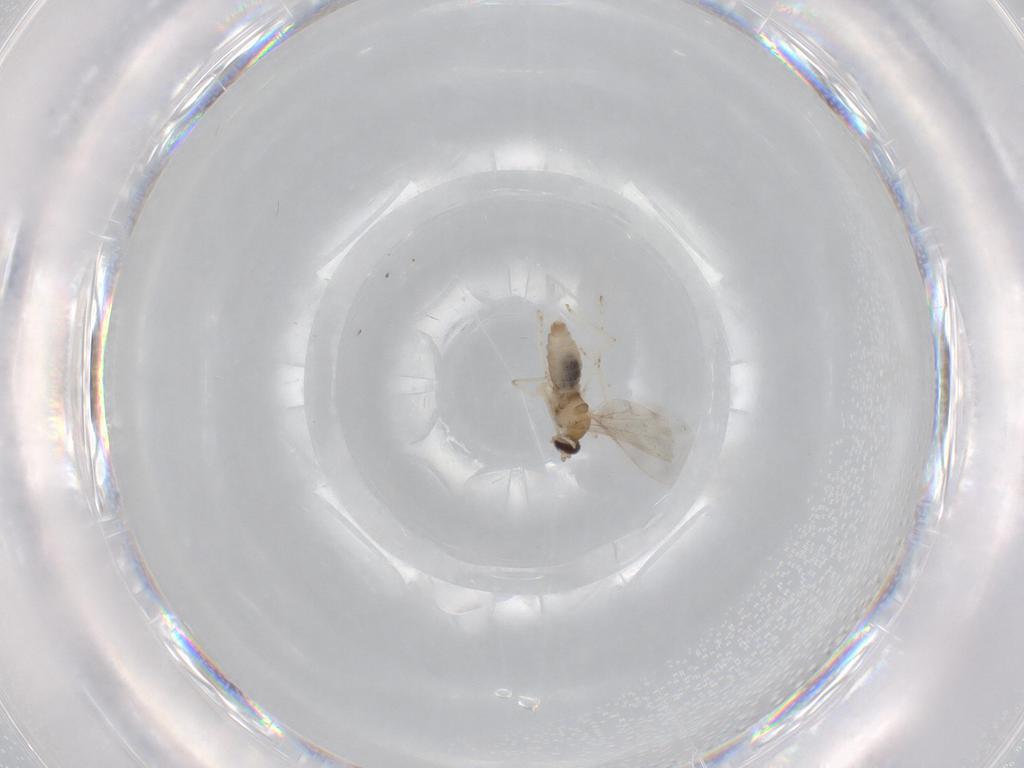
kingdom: Animalia
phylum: Arthropoda
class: Insecta
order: Diptera
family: Cecidomyiidae
